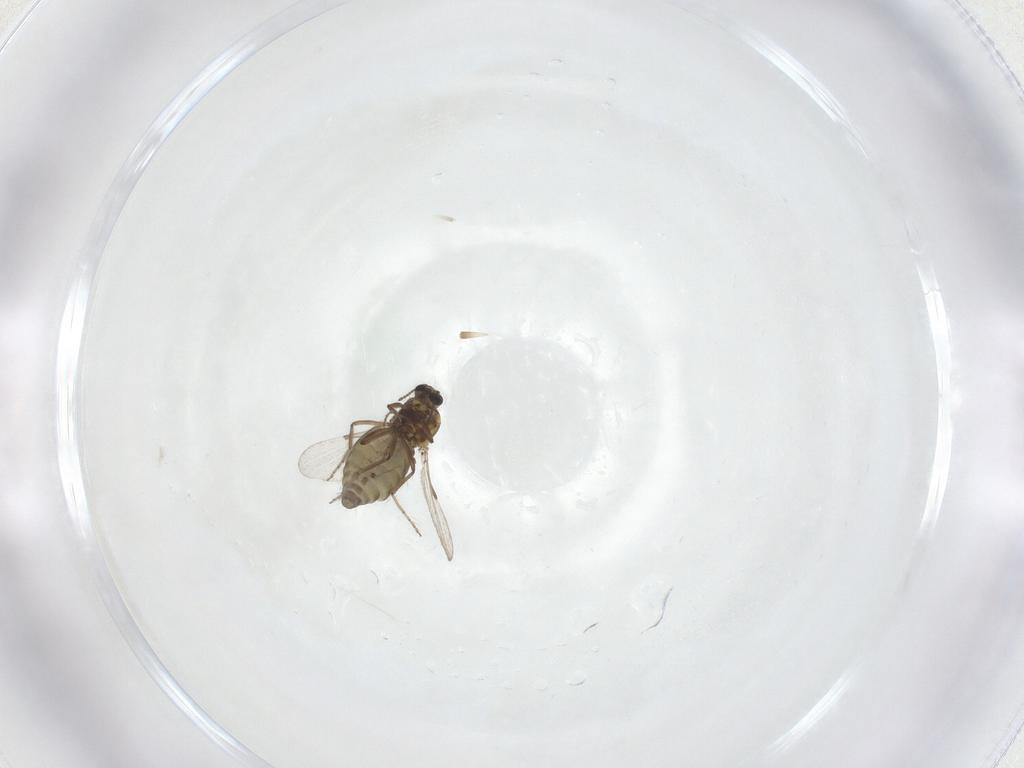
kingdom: Animalia
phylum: Arthropoda
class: Insecta
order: Diptera
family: Ceratopogonidae
